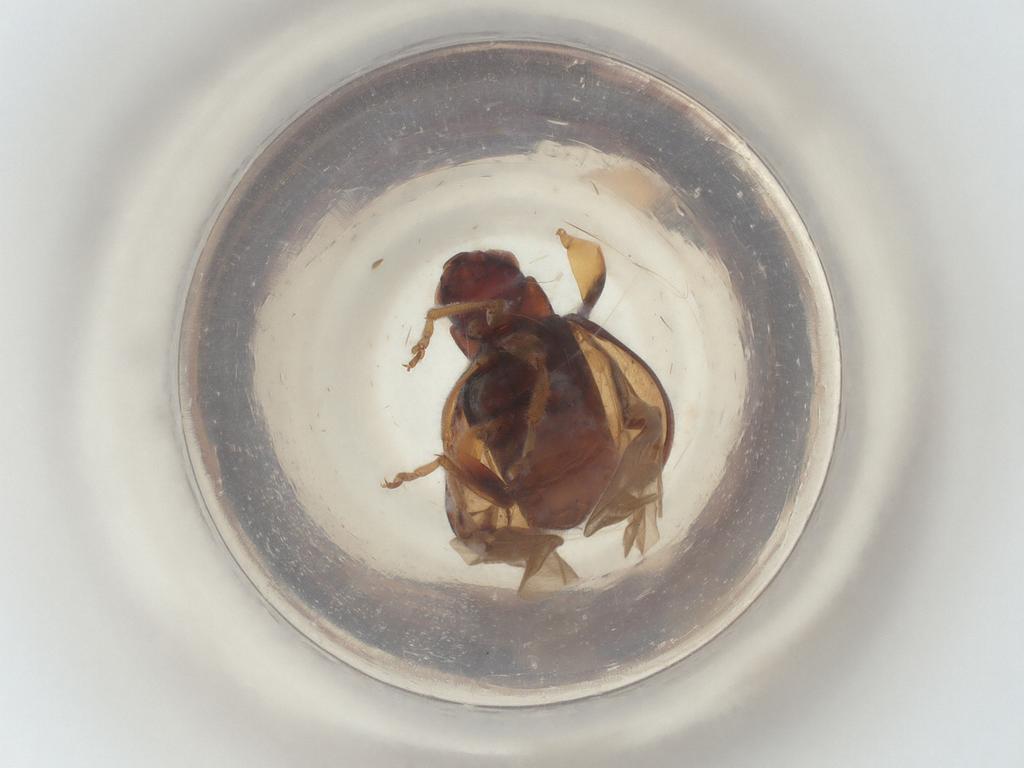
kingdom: Animalia
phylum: Arthropoda
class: Insecta
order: Coleoptera
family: Chrysomelidae
